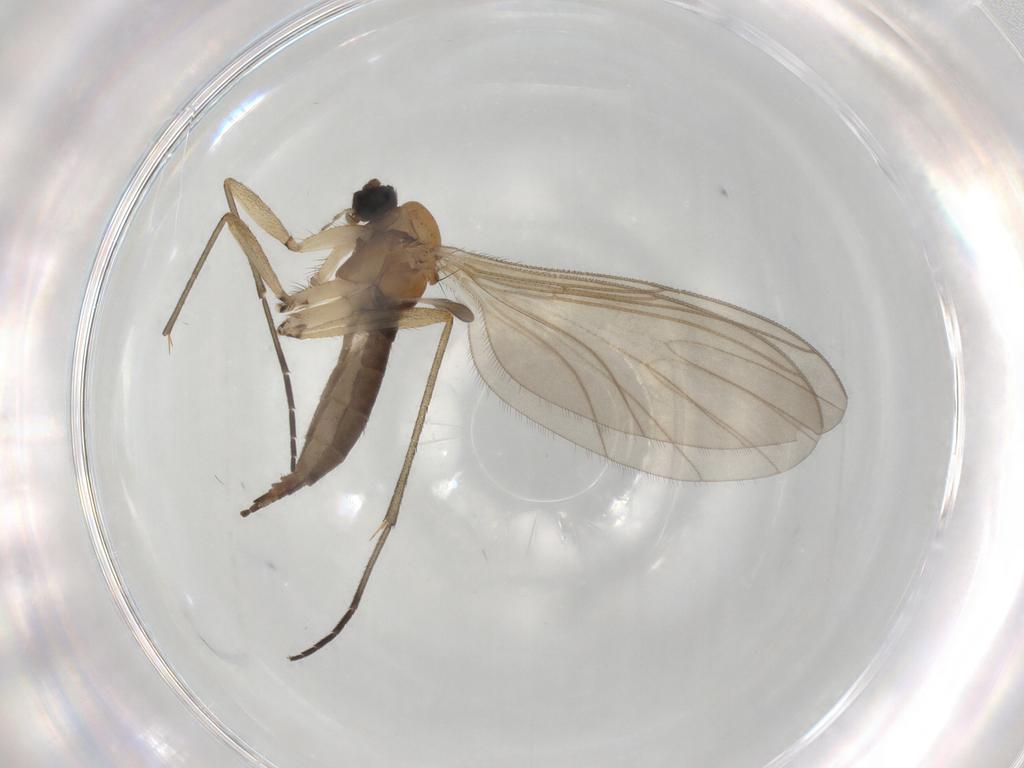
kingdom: Animalia
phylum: Arthropoda
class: Insecta
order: Diptera
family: Sciaridae
